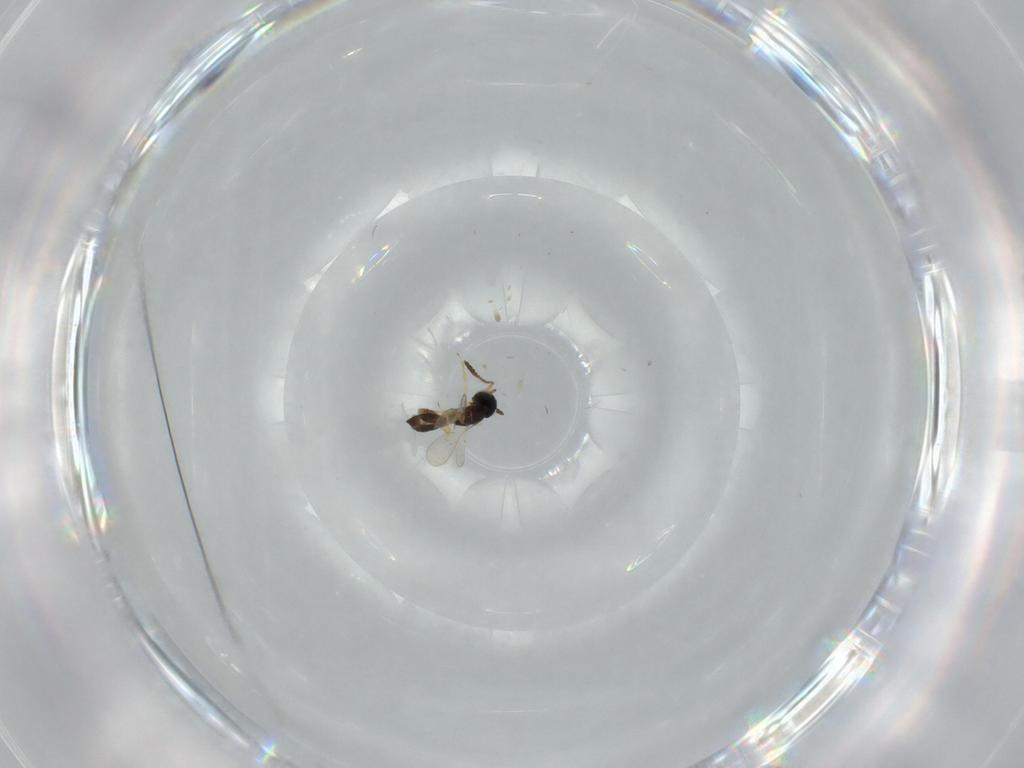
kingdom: Animalia
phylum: Arthropoda
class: Insecta
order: Hymenoptera
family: Scelionidae
